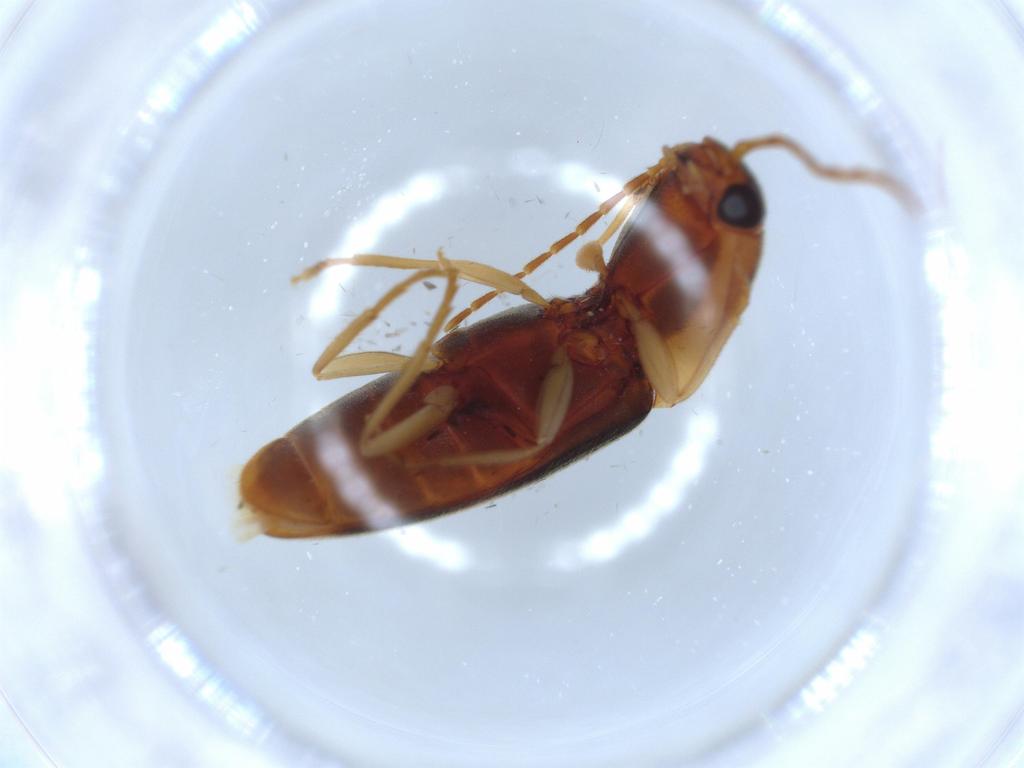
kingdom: Animalia
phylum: Arthropoda
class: Insecta
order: Coleoptera
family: Elateridae
